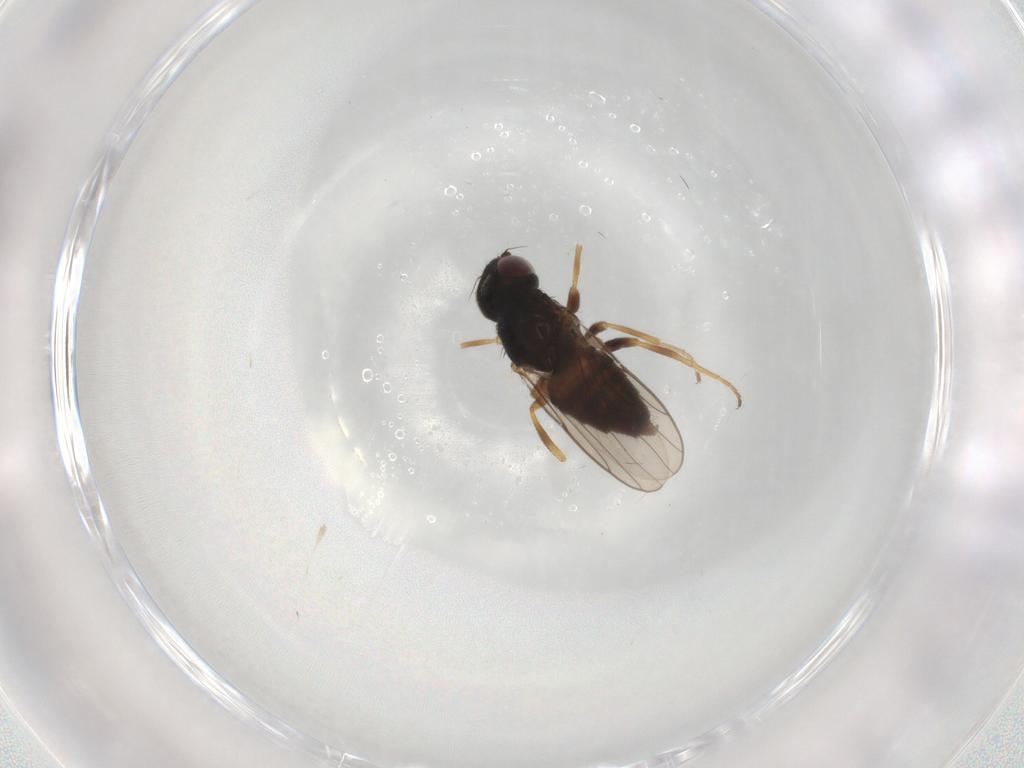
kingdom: Animalia
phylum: Arthropoda
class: Insecta
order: Diptera
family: Chloropidae
